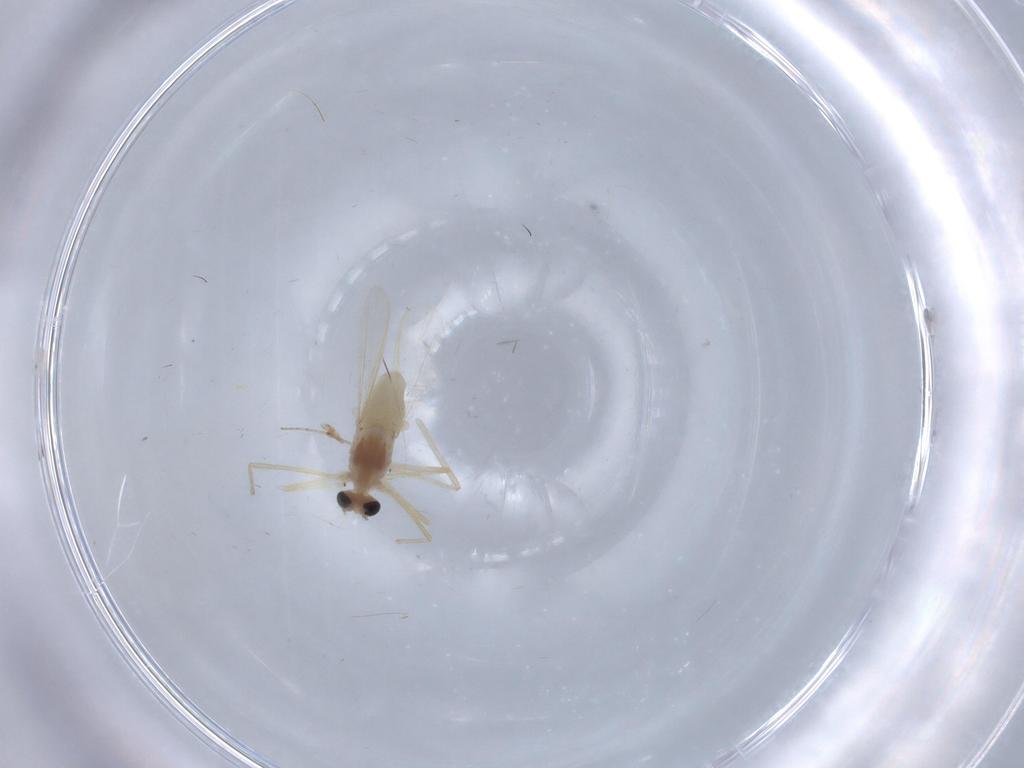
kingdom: Animalia
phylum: Arthropoda
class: Insecta
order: Diptera
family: Chironomidae
